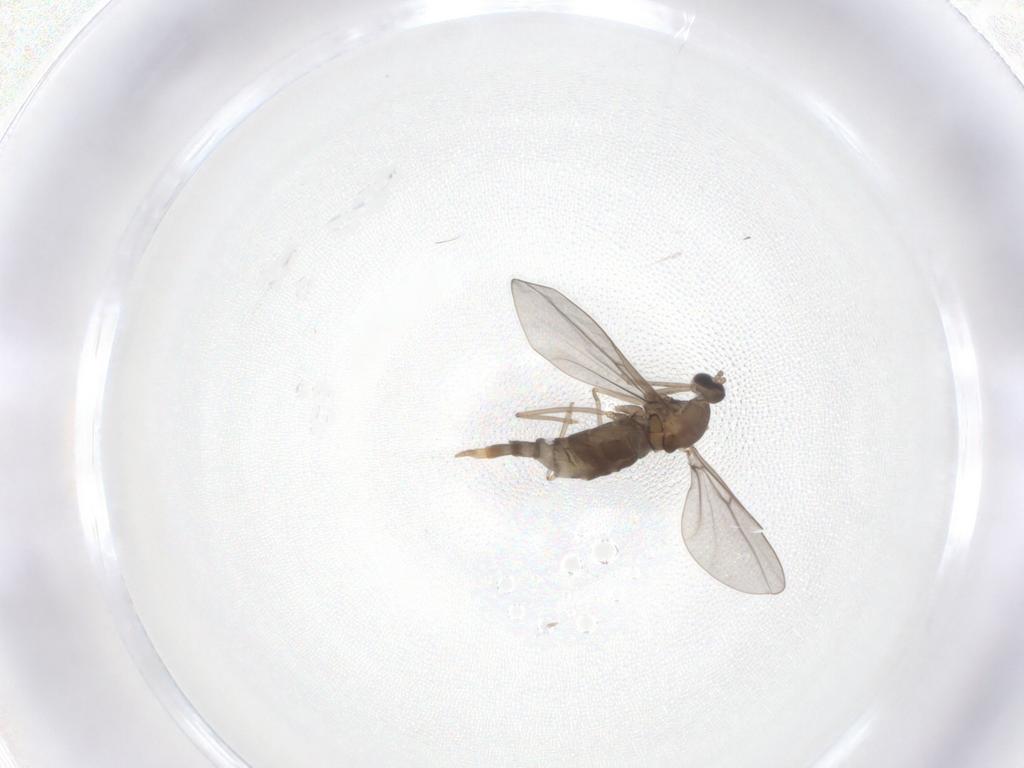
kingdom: Animalia
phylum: Arthropoda
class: Insecta
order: Diptera
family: Cecidomyiidae
